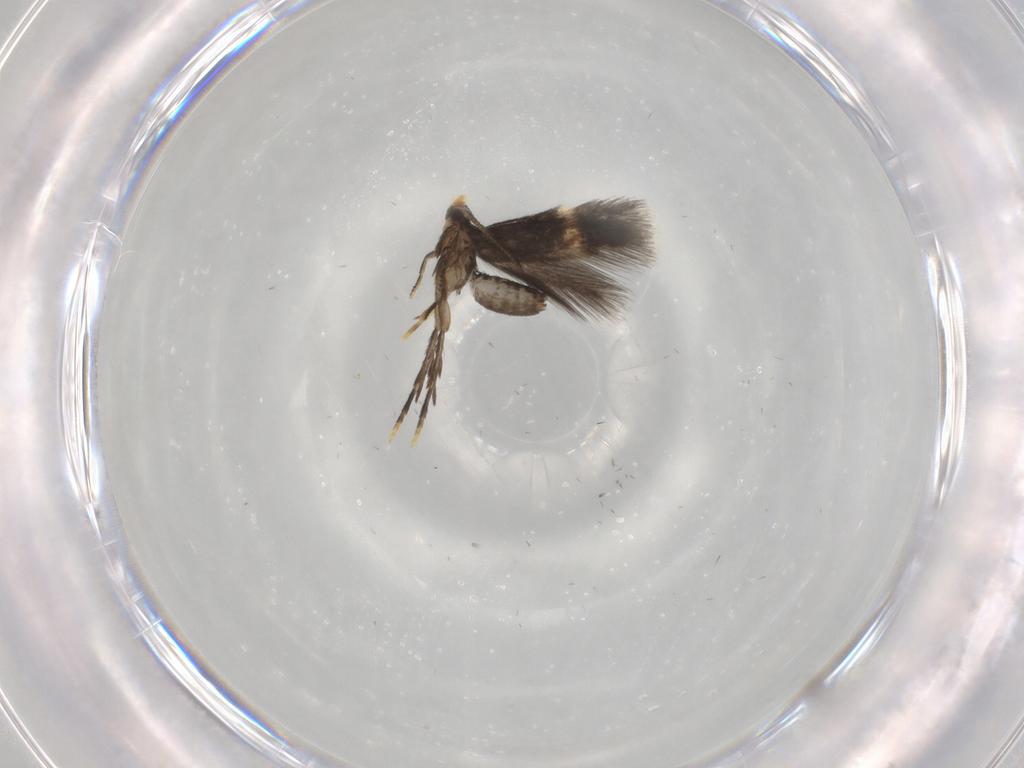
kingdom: Animalia
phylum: Arthropoda
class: Insecta
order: Lepidoptera
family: Nepticulidae
